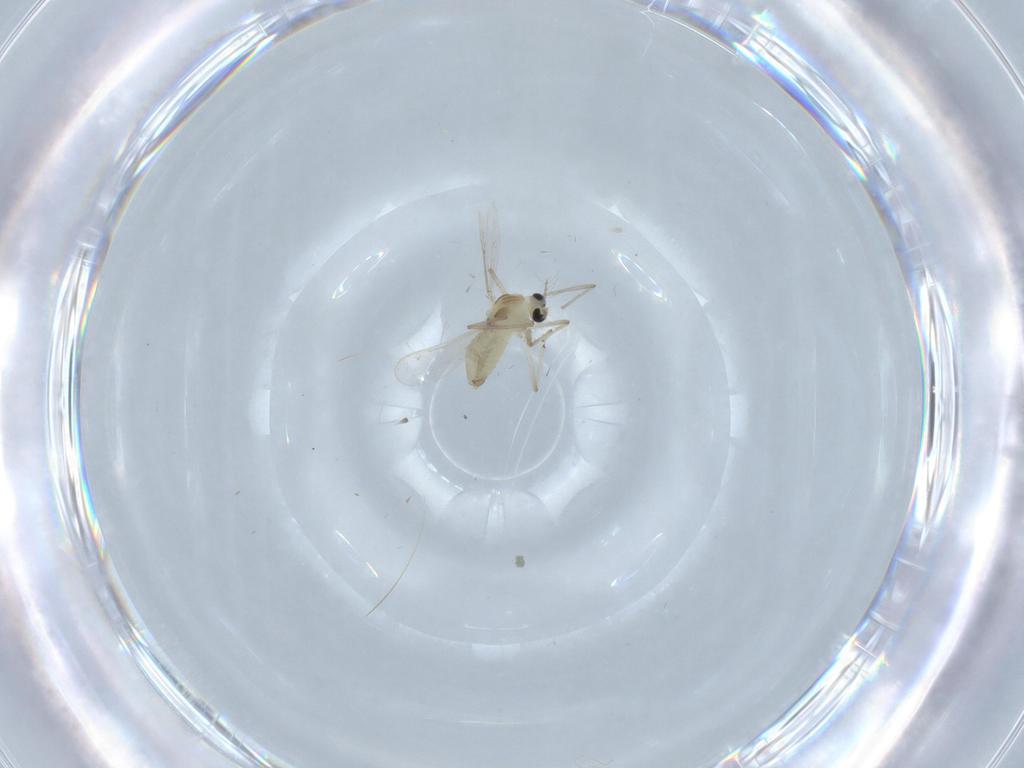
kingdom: Animalia
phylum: Arthropoda
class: Insecta
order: Diptera
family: Chironomidae
